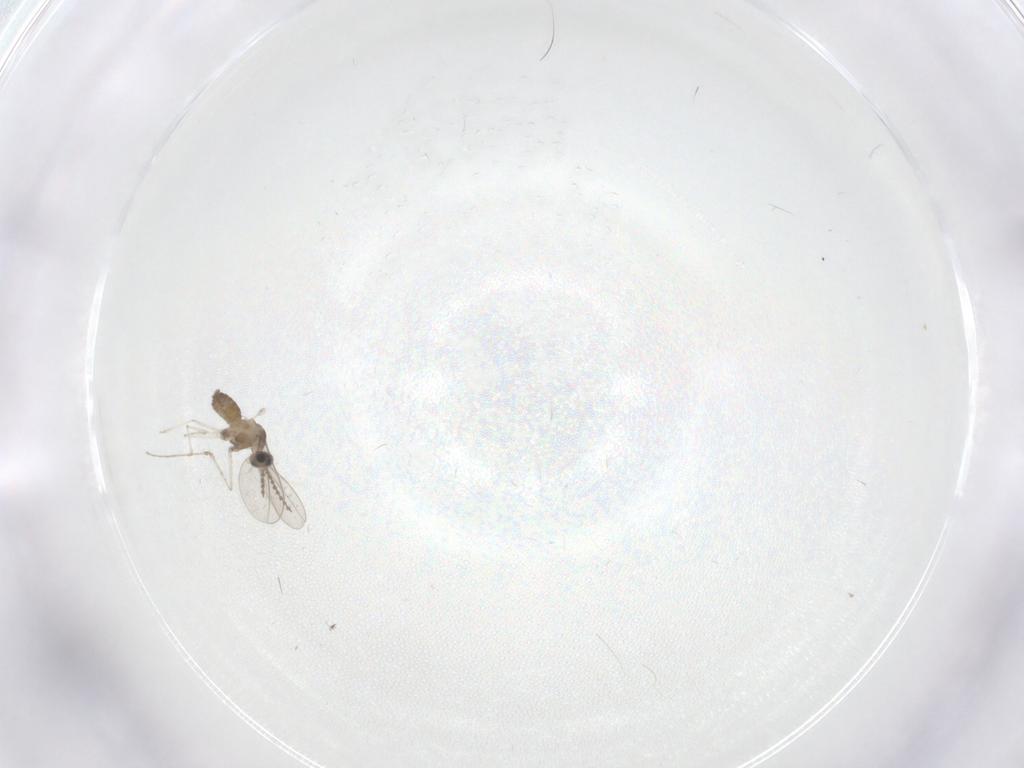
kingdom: Animalia
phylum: Arthropoda
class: Insecta
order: Diptera
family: Cecidomyiidae
